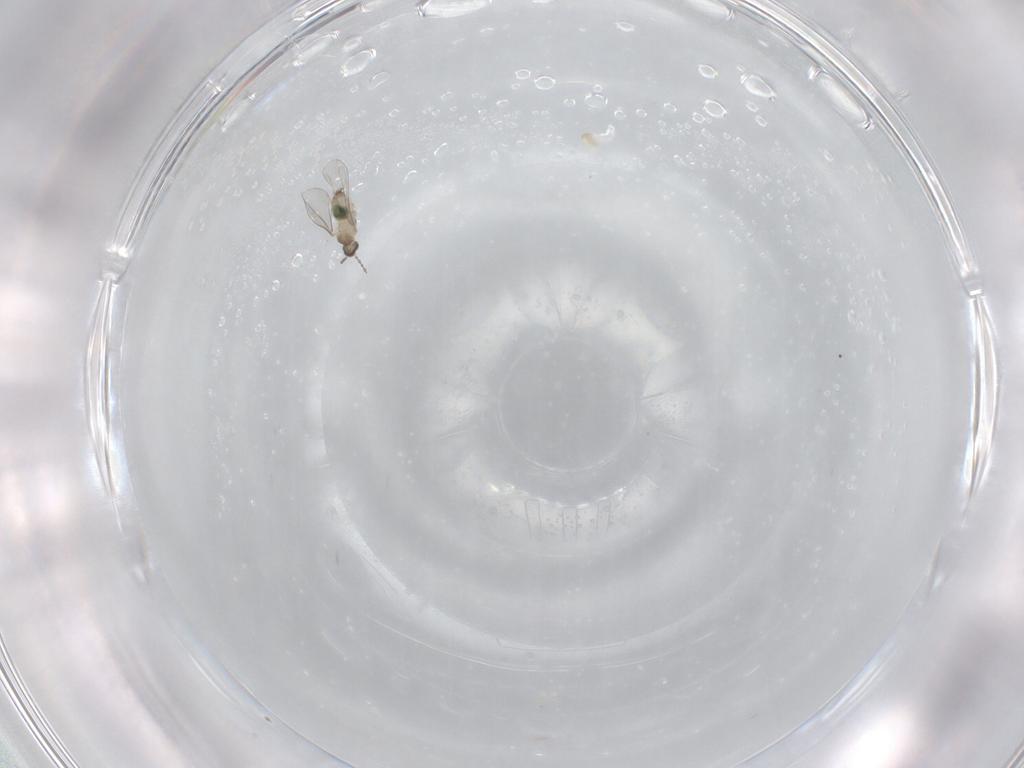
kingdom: Animalia
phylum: Arthropoda
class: Insecta
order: Diptera
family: Cecidomyiidae
